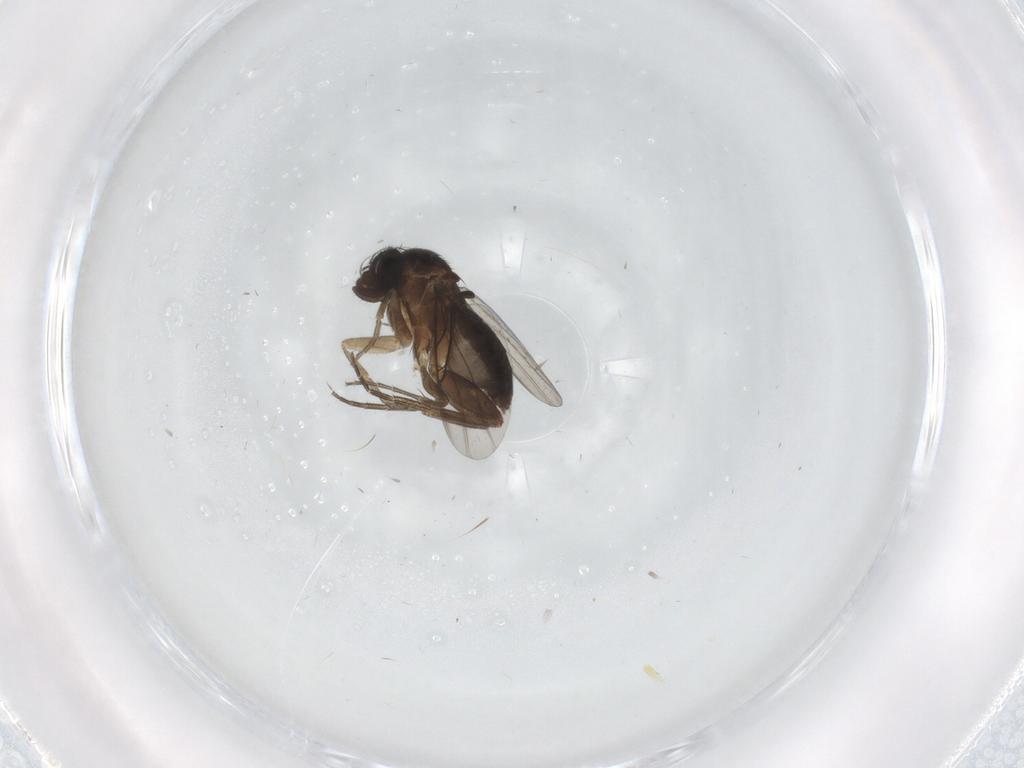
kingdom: Animalia
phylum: Arthropoda
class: Insecta
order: Diptera
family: Phoridae
